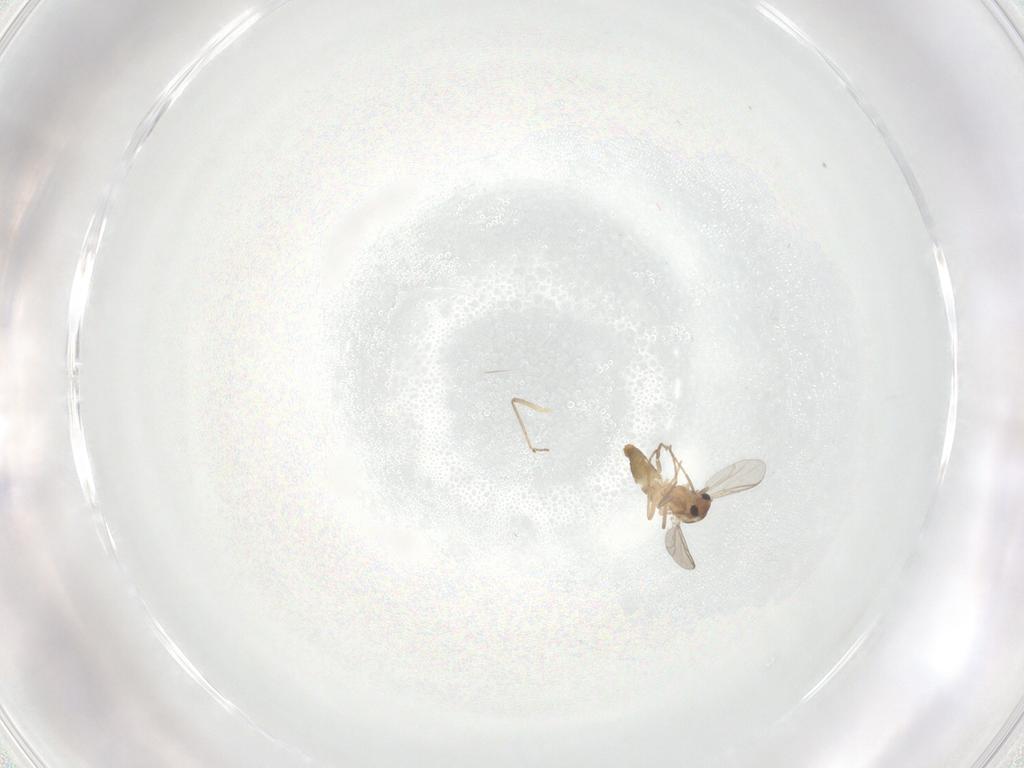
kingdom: Animalia
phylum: Arthropoda
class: Insecta
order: Diptera
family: Chironomidae
